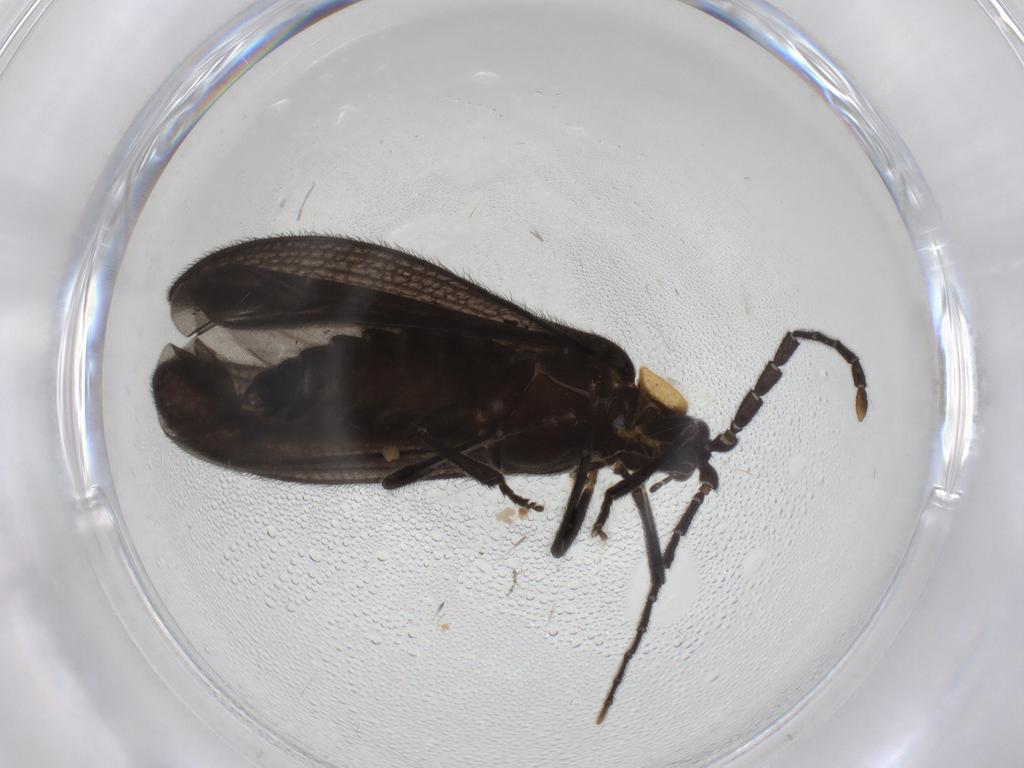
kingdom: Animalia
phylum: Arthropoda
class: Insecta
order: Coleoptera
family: Lycidae
